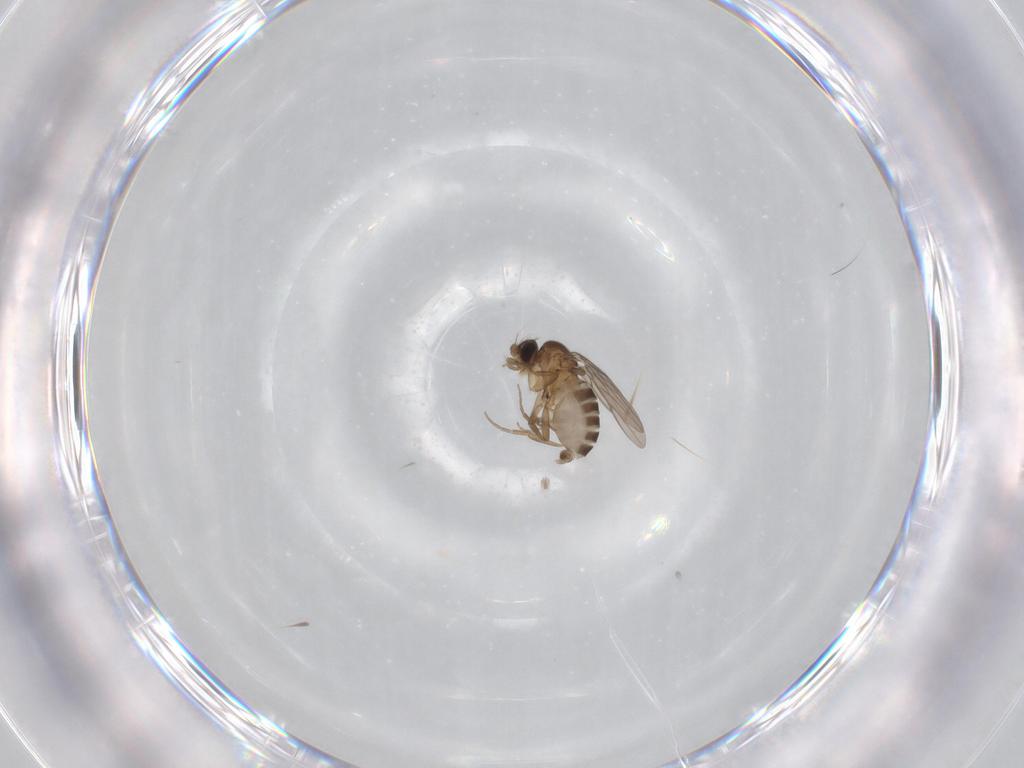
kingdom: Animalia
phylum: Arthropoda
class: Insecta
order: Diptera
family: Phoridae
